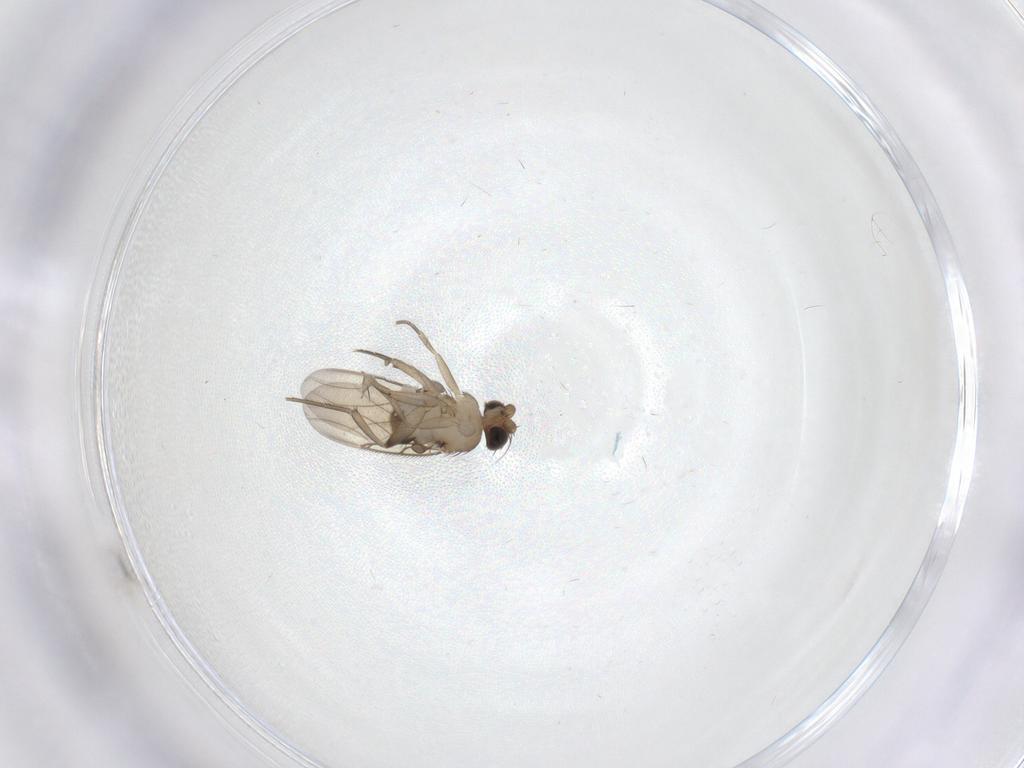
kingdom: Animalia
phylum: Arthropoda
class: Insecta
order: Diptera
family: Phoridae
